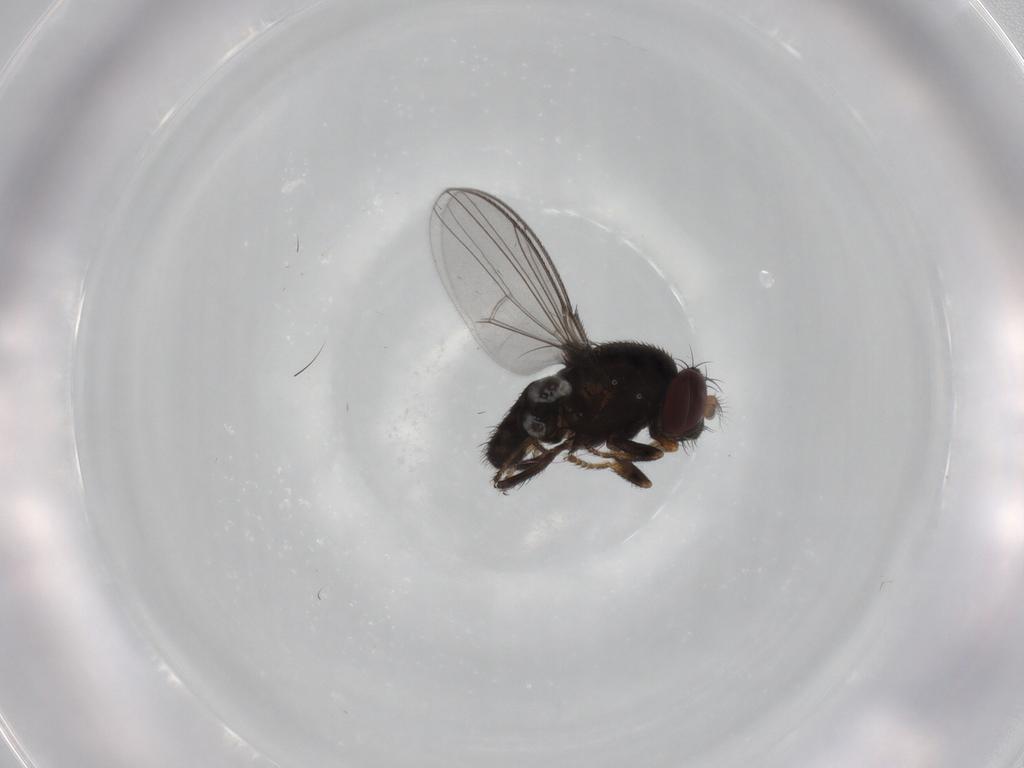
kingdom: Animalia
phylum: Arthropoda
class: Insecta
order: Diptera
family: Ephydridae
